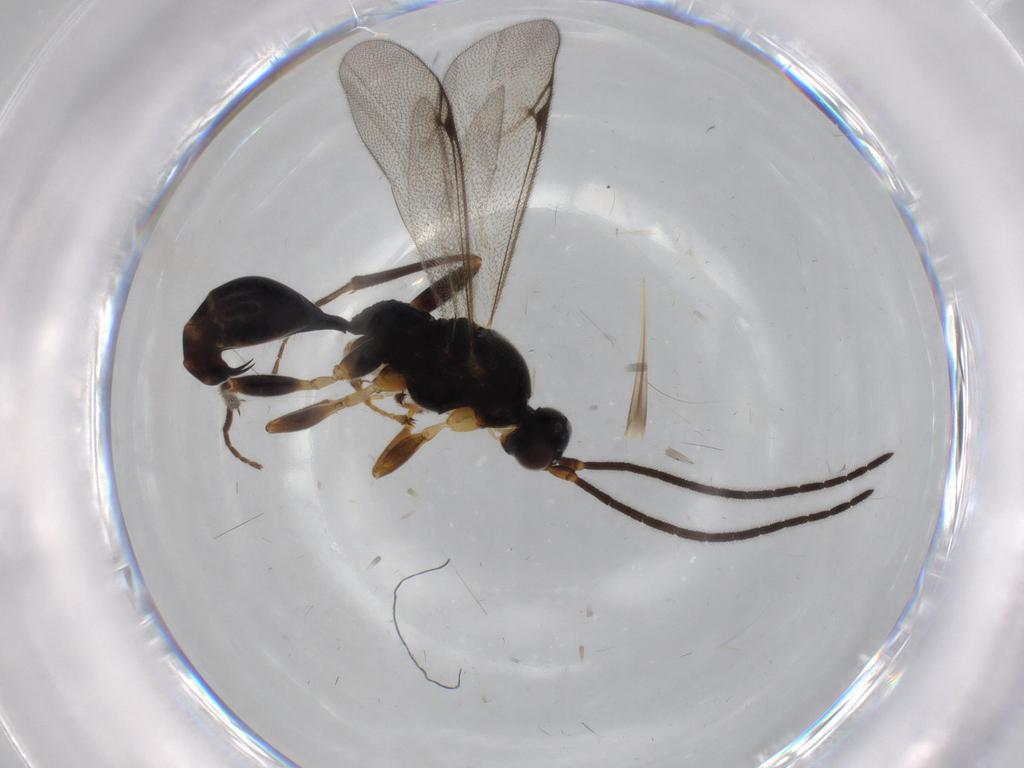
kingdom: Animalia
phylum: Arthropoda
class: Insecta
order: Hymenoptera
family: Proctotrupidae
